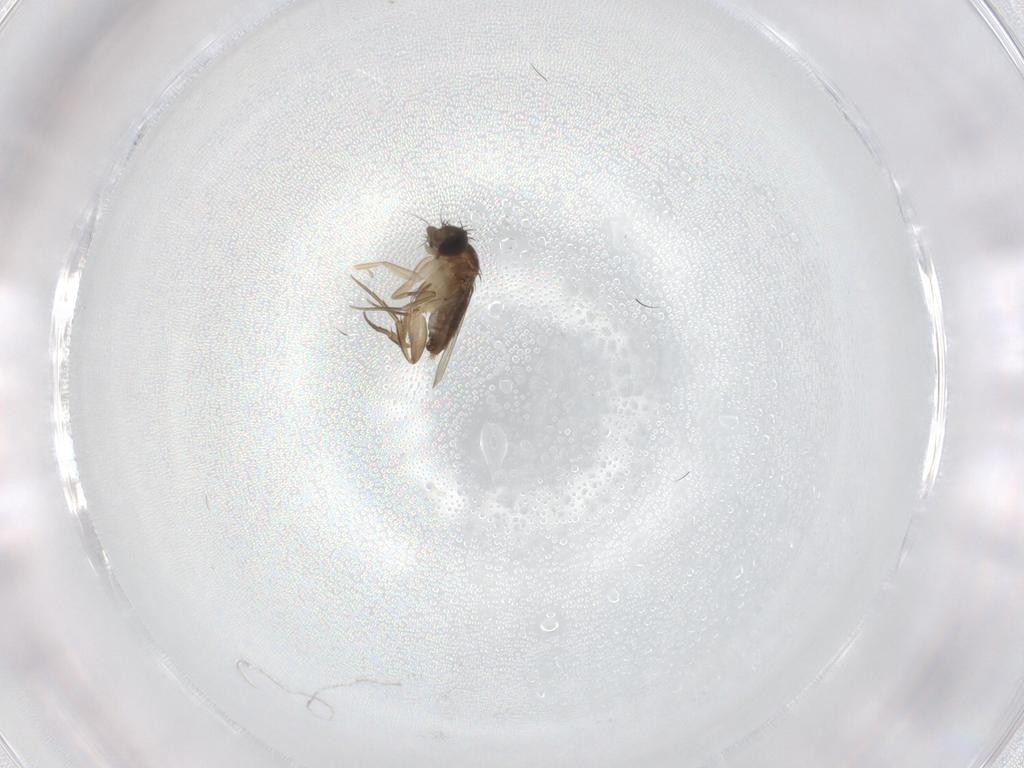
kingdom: Animalia
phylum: Arthropoda
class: Insecta
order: Diptera
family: Phoridae
